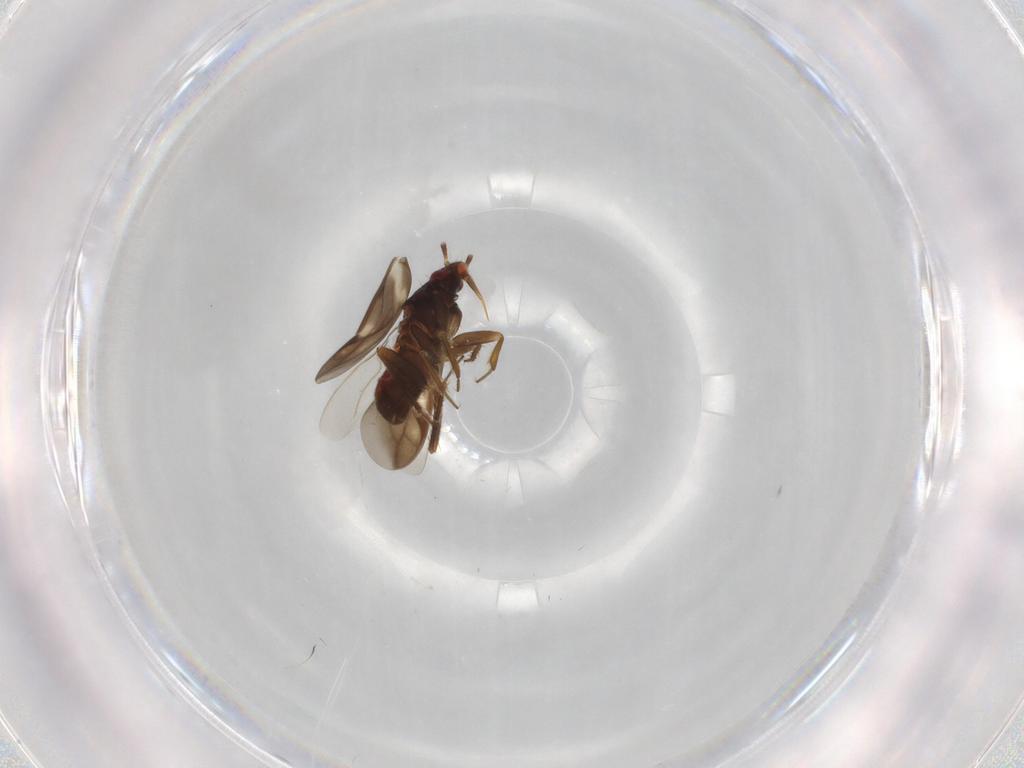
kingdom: Animalia
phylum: Arthropoda
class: Insecta
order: Hemiptera
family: Ceratocombidae
